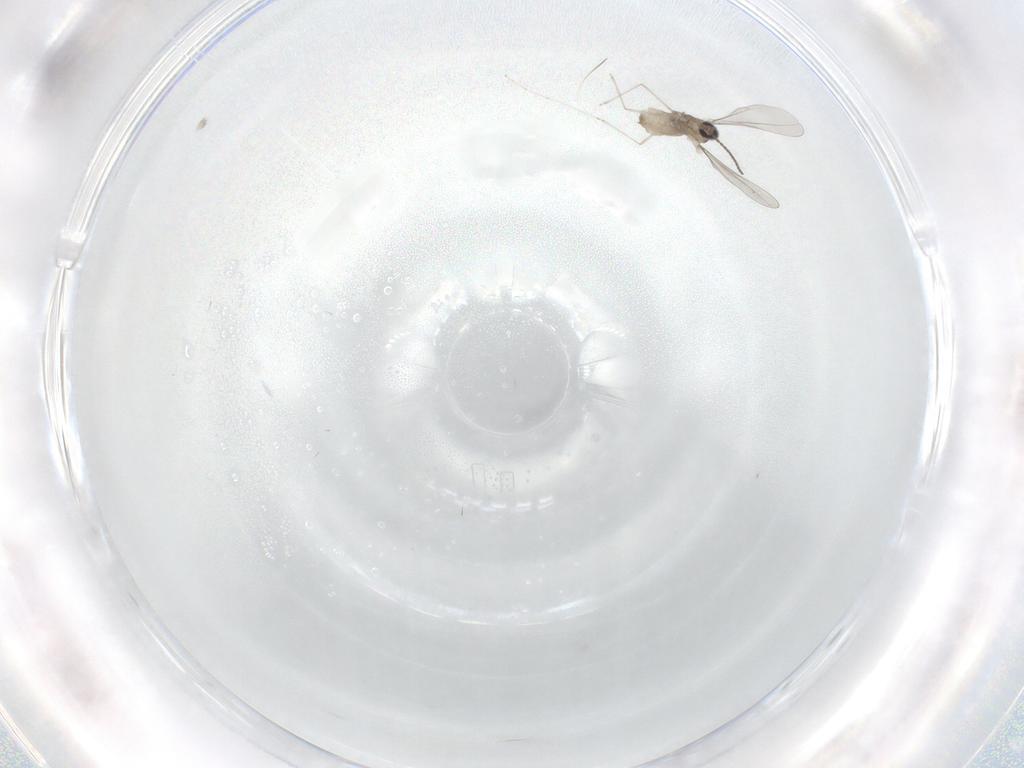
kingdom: Animalia
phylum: Arthropoda
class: Insecta
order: Diptera
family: Cecidomyiidae
